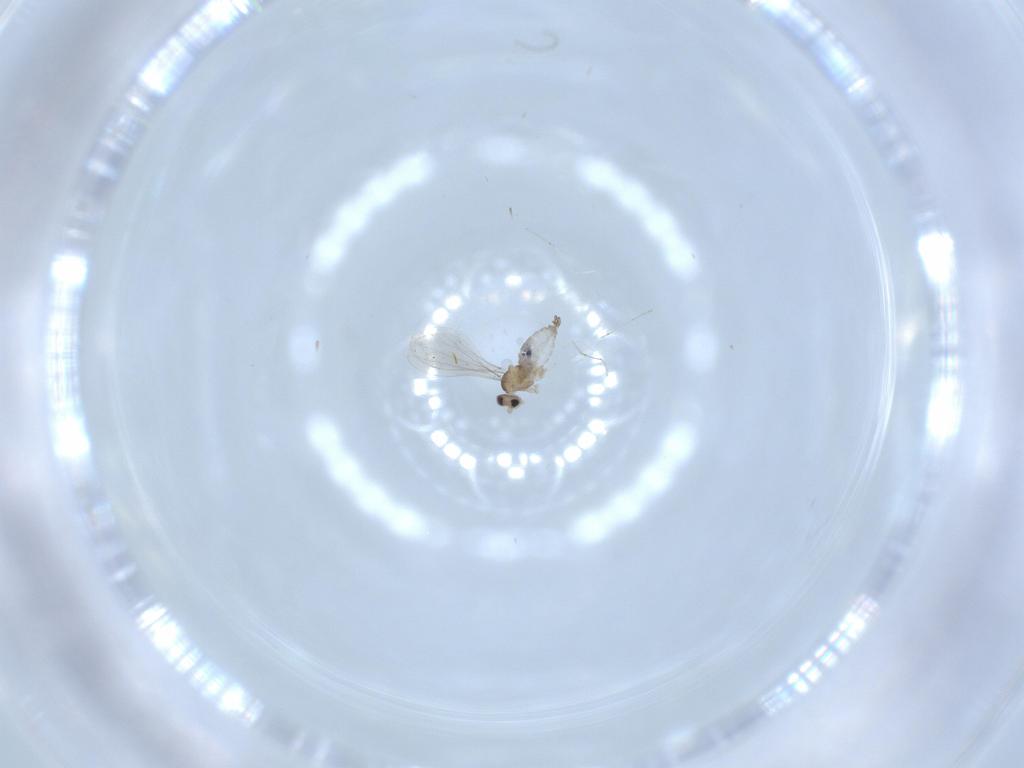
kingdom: Animalia
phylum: Arthropoda
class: Insecta
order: Diptera
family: Cecidomyiidae
